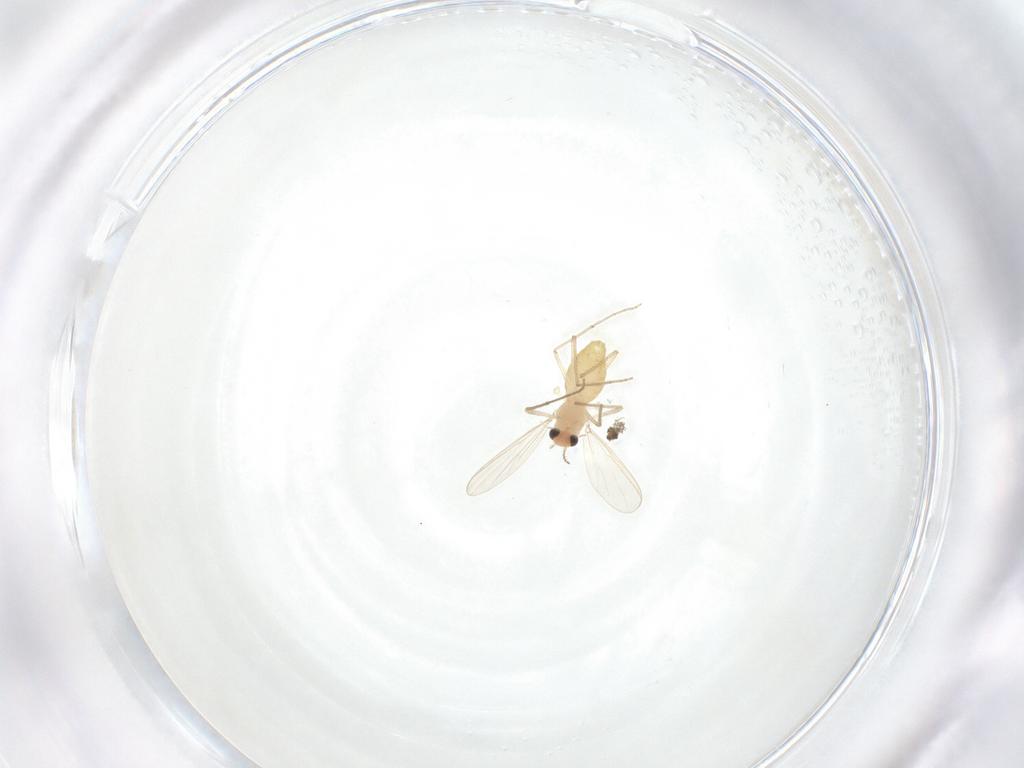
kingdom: Animalia
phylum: Arthropoda
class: Insecta
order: Diptera
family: Chironomidae
